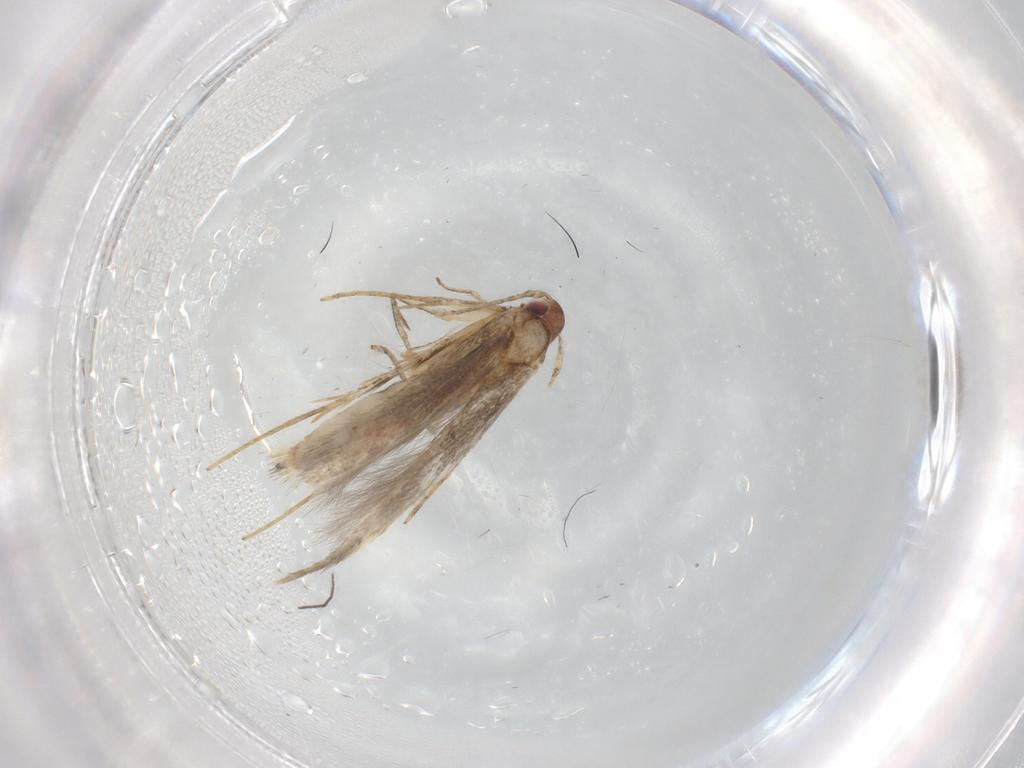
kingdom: Animalia
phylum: Arthropoda
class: Insecta
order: Lepidoptera
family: Cosmopterigidae
